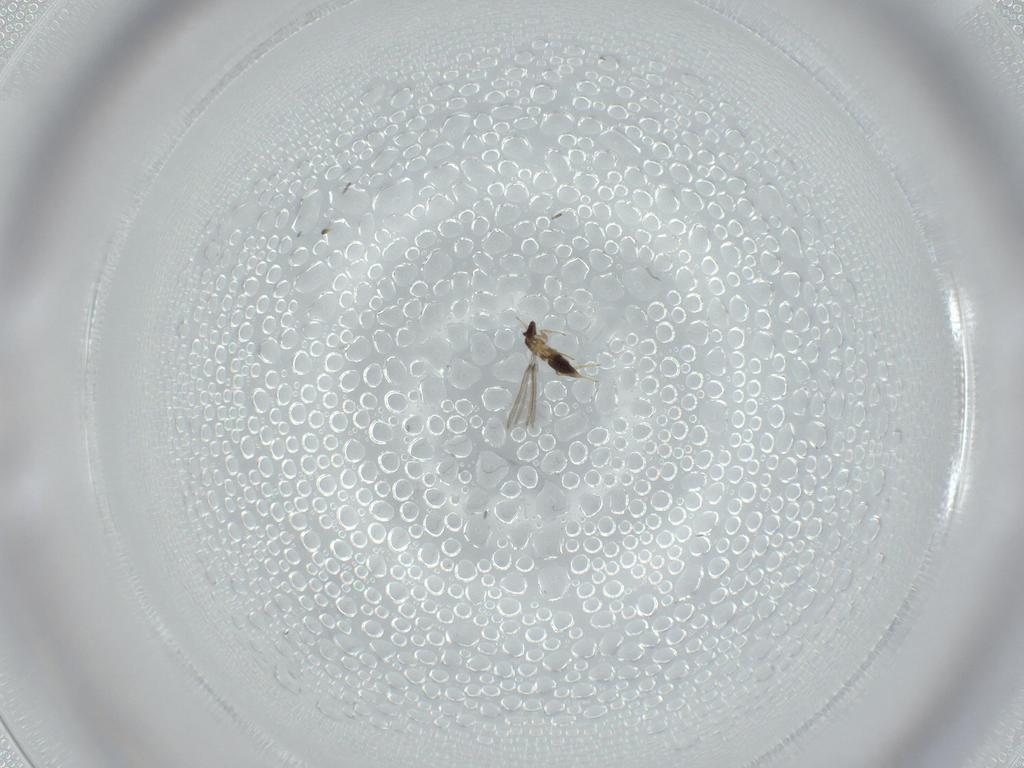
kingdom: Animalia
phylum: Arthropoda
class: Insecta
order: Hymenoptera
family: Mymaridae
